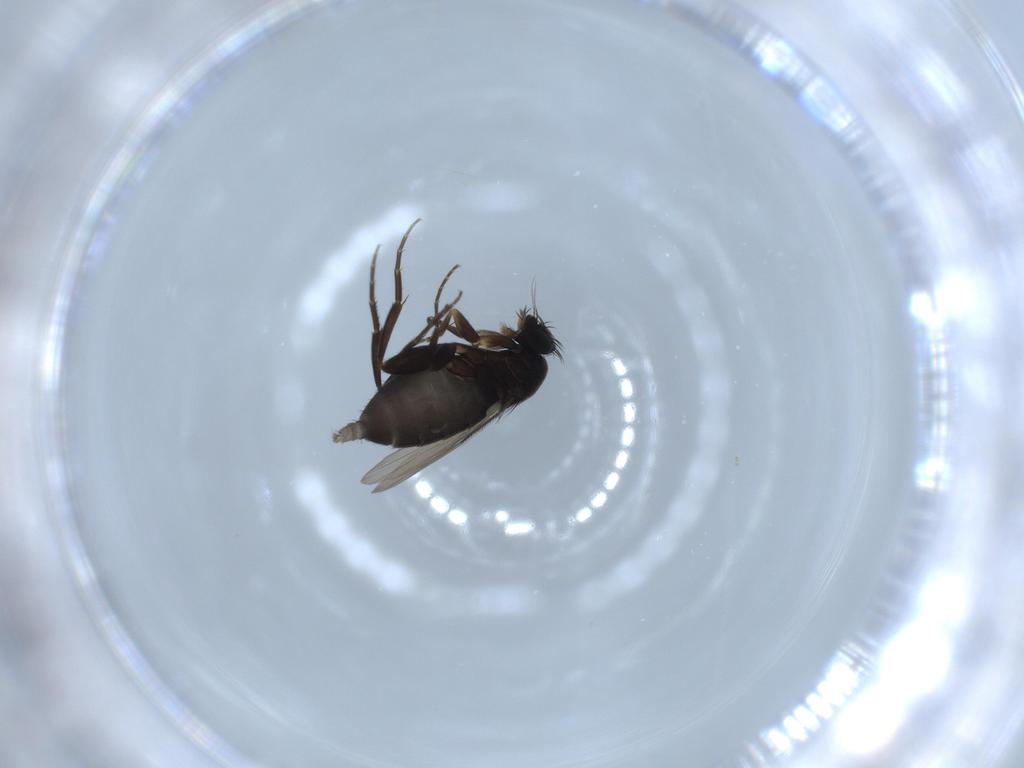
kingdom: Animalia
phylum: Arthropoda
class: Insecta
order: Diptera
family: Phoridae
